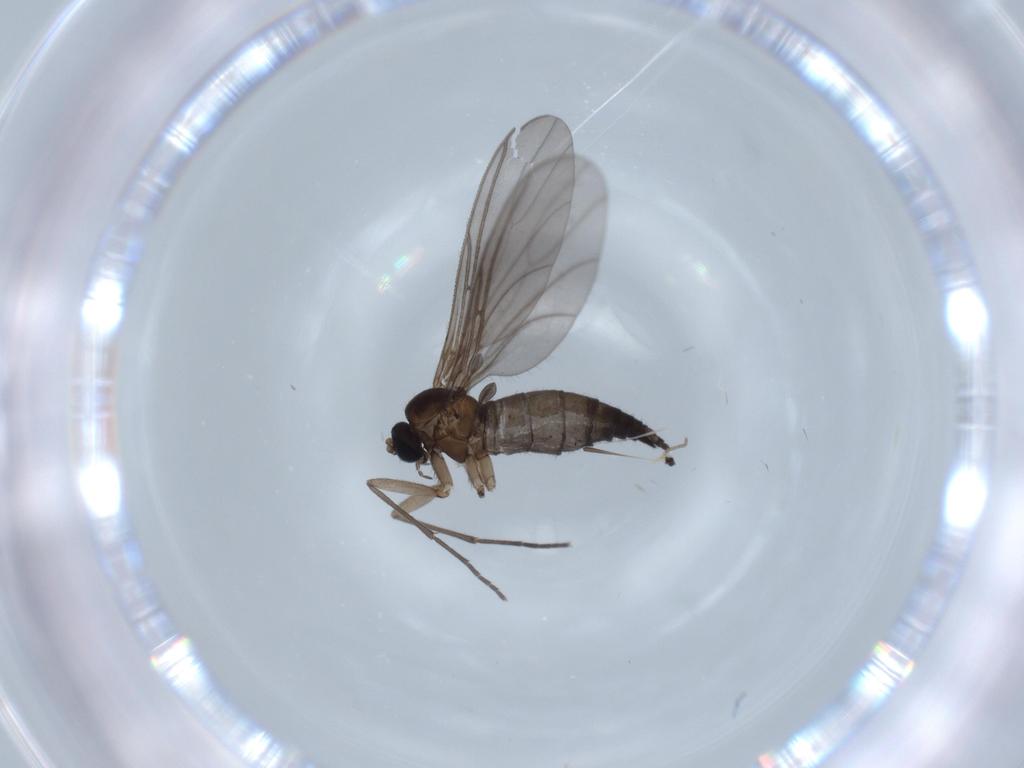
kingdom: Animalia
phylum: Arthropoda
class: Insecta
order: Diptera
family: Sciaridae
